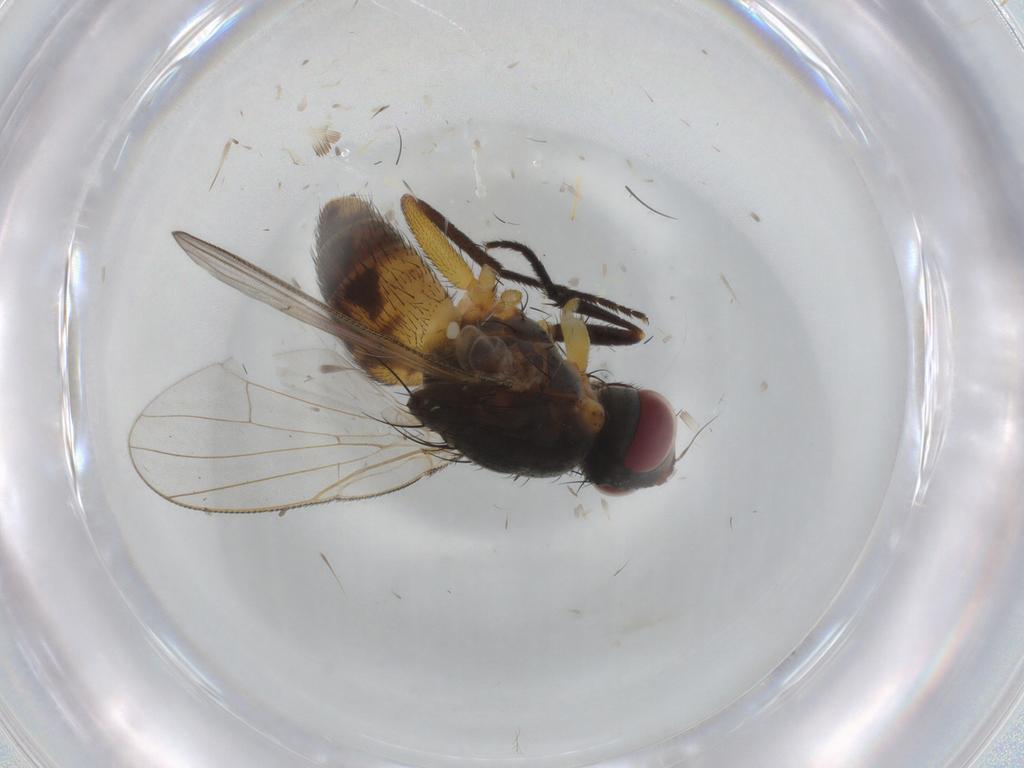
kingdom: Animalia
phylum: Arthropoda
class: Insecta
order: Diptera
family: Muscidae
